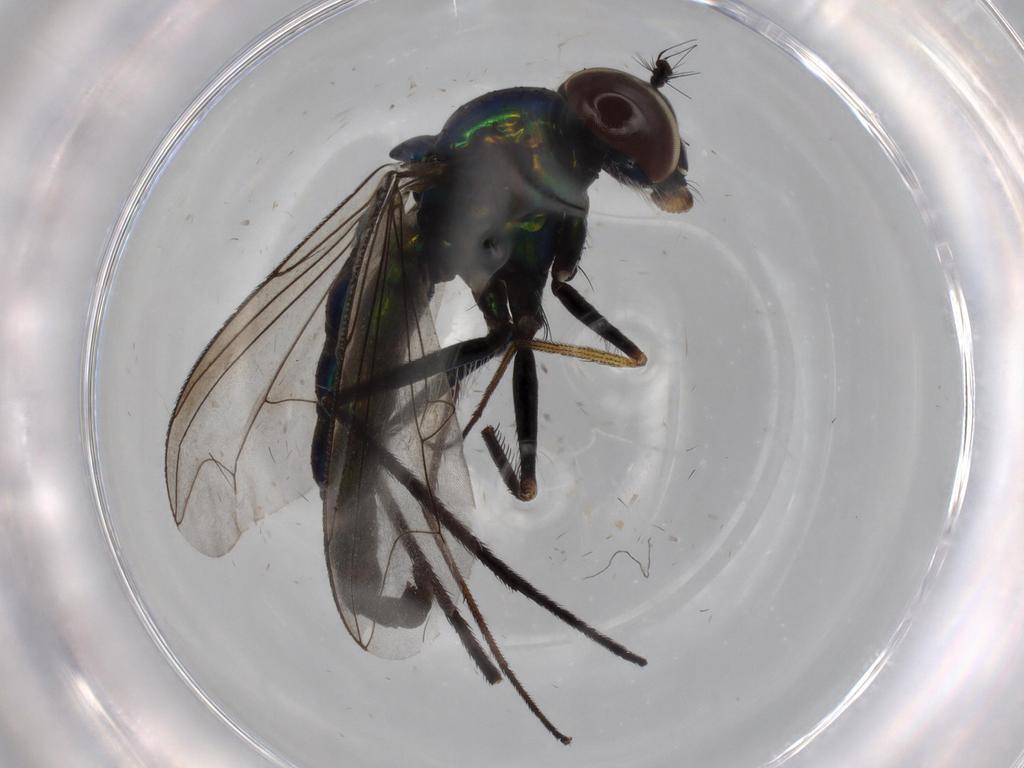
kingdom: Animalia
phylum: Arthropoda
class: Insecta
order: Diptera
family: Dolichopodidae
